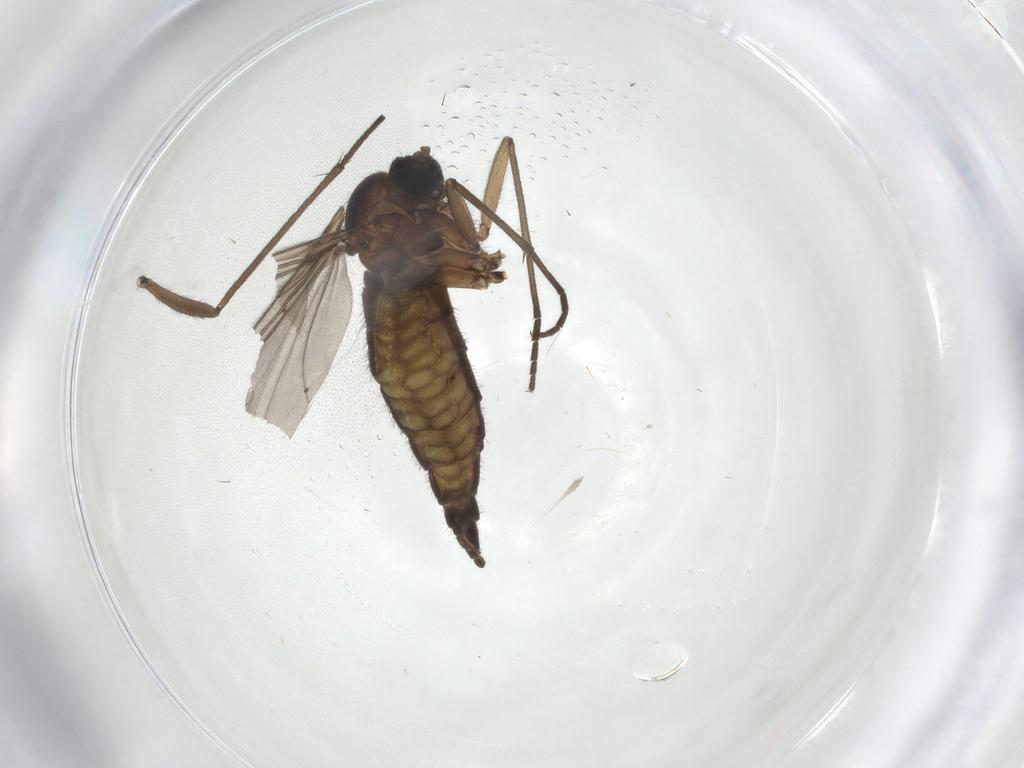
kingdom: Animalia
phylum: Arthropoda
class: Insecta
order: Diptera
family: Sciaridae
